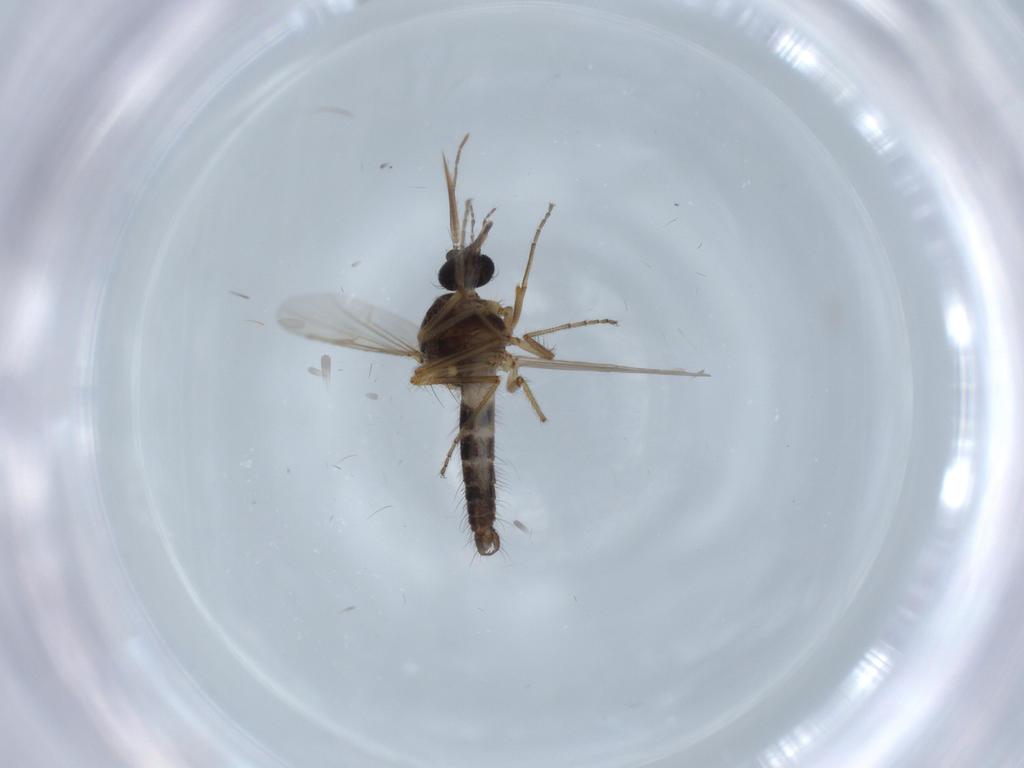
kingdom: Animalia
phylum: Arthropoda
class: Insecta
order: Diptera
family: Ceratopogonidae
